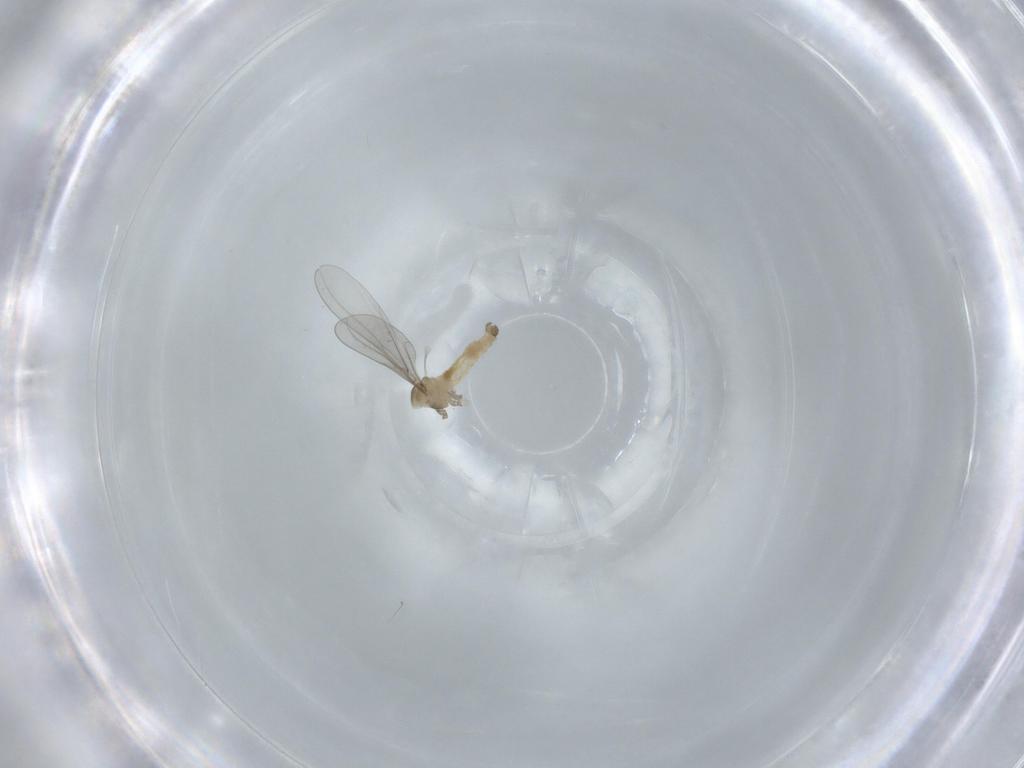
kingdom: Animalia
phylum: Arthropoda
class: Insecta
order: Diptera
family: Cecidomyiidae
